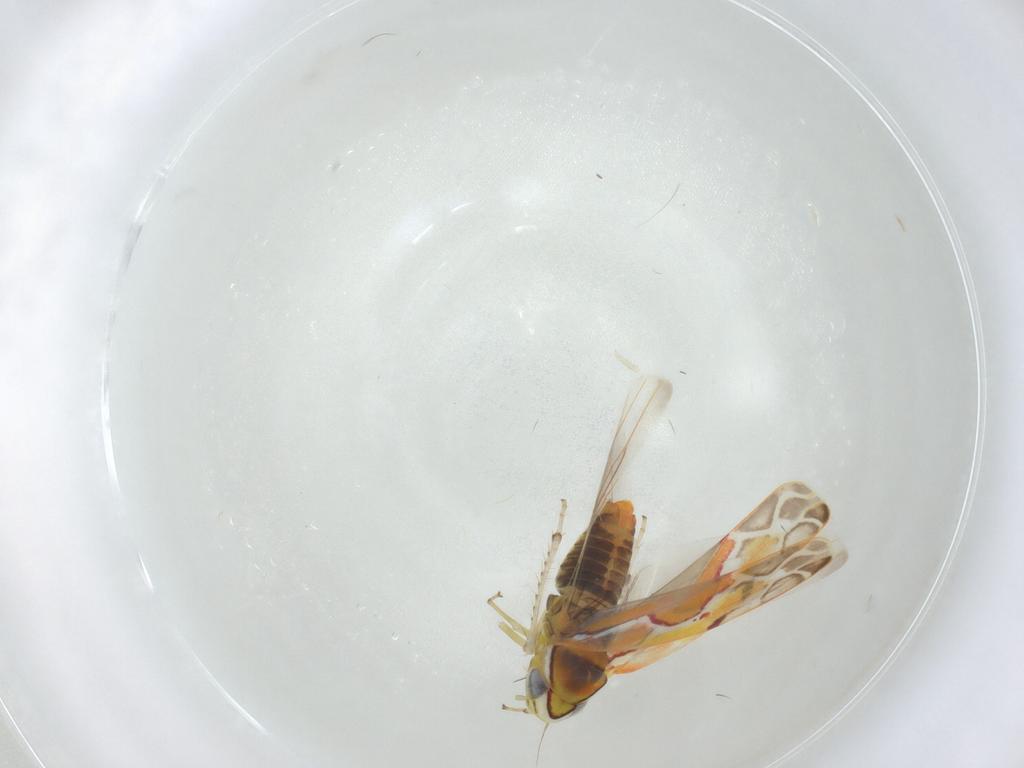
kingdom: Animalia
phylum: Arthropoda
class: Insecta
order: Hemiptera
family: Cicadellidae
